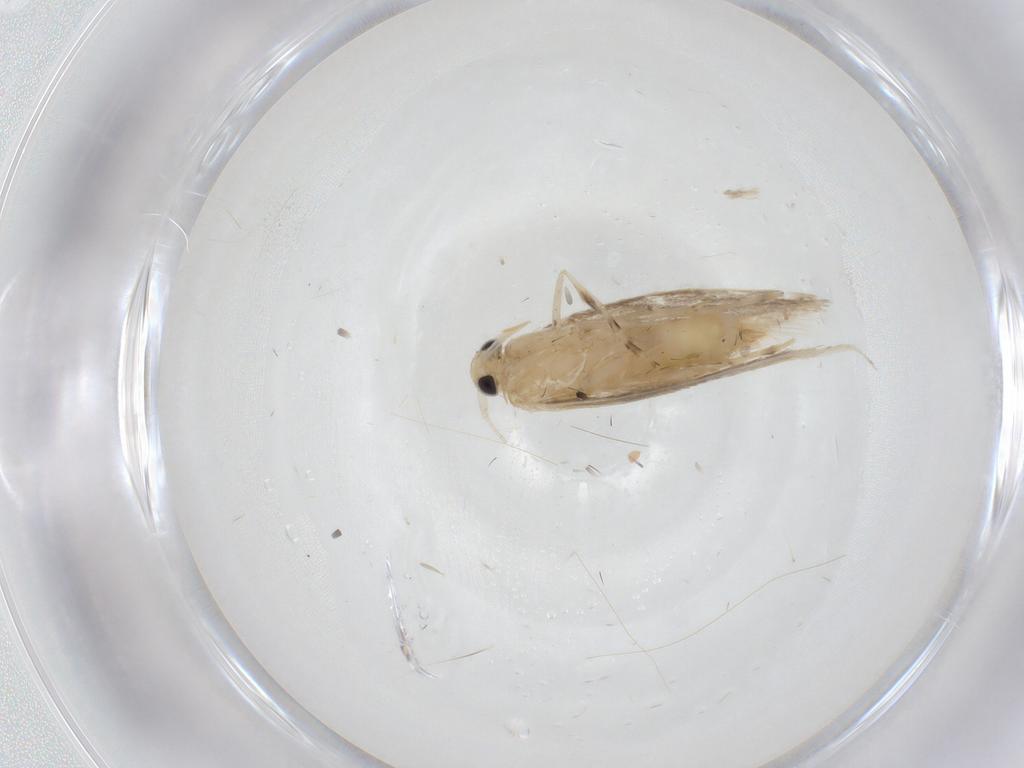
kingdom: Animalia
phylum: Arthropoda
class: Insecta
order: Lepidoptera
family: Gracillariidae
